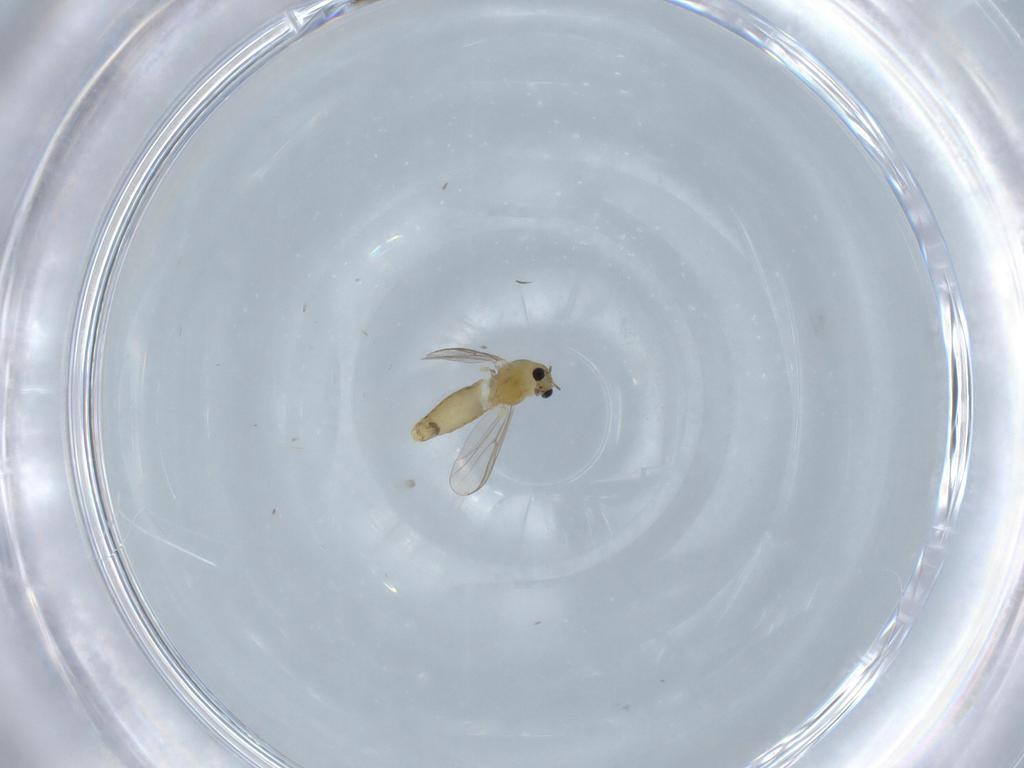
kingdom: Animalia
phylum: Arthropoda
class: Insecta
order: Diptera
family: Chironomidae
